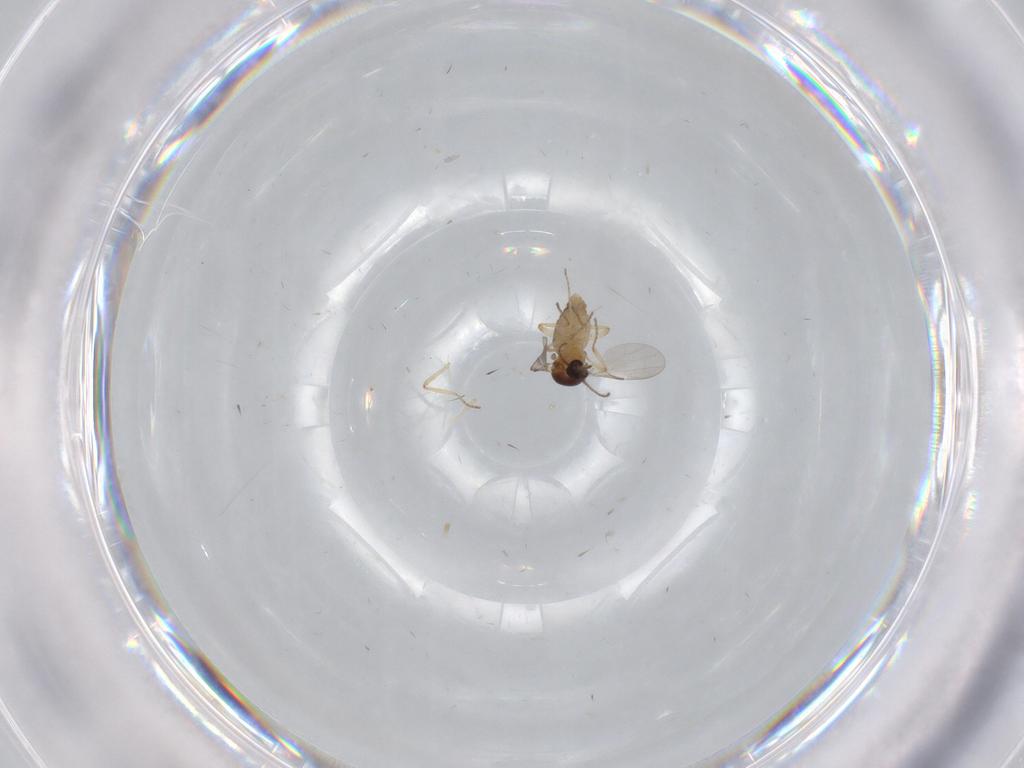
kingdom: Animalia
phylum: Arthropoda
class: Insecta
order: Diptera
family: Ceratopogonidae
